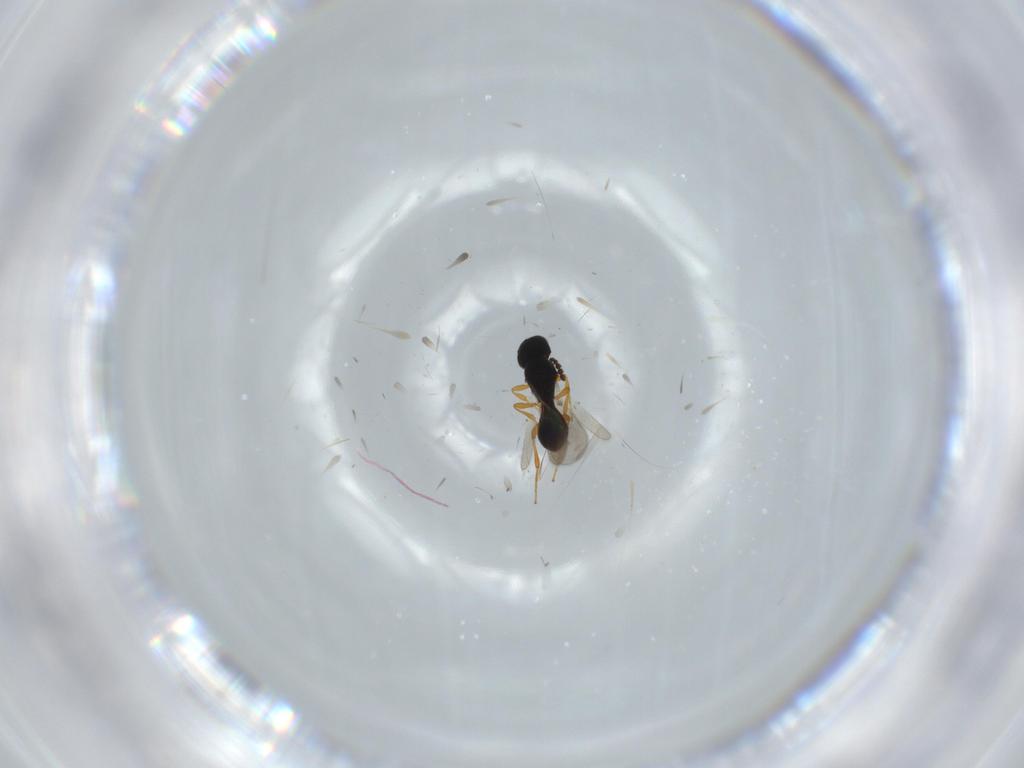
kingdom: Animalia
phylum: Arthropoda
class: Insecta
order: Hymenoptera
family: Platygastridae
